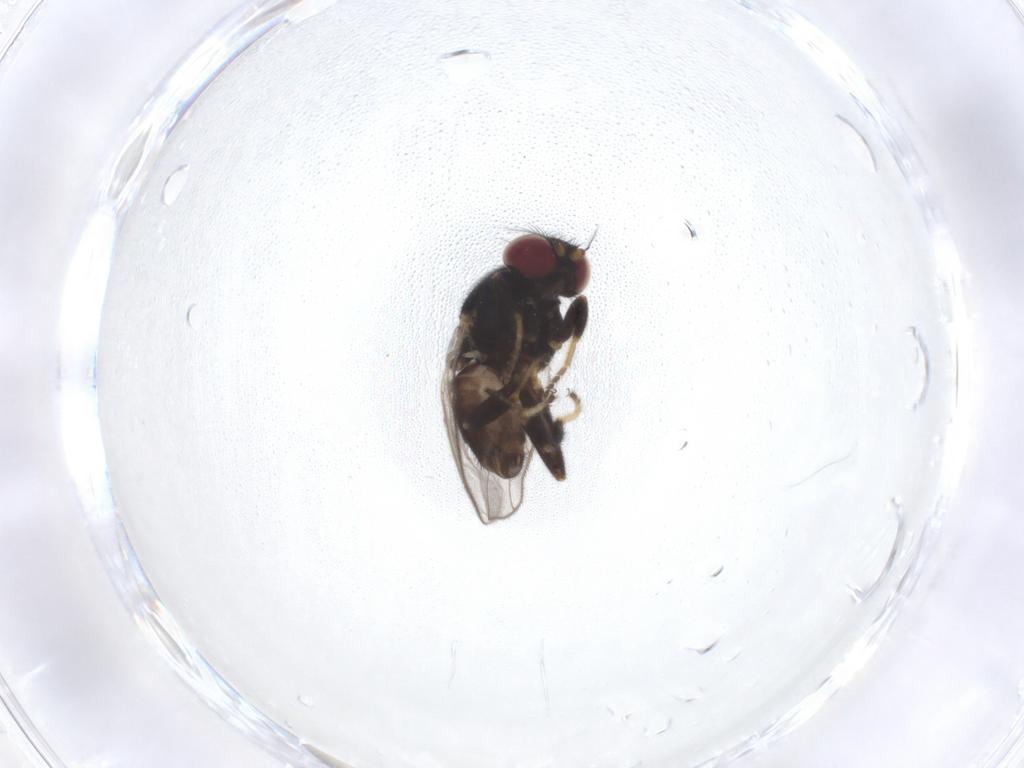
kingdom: Animalia
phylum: Arthropoda
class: Insecta
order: Diptera
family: Chloropidae
